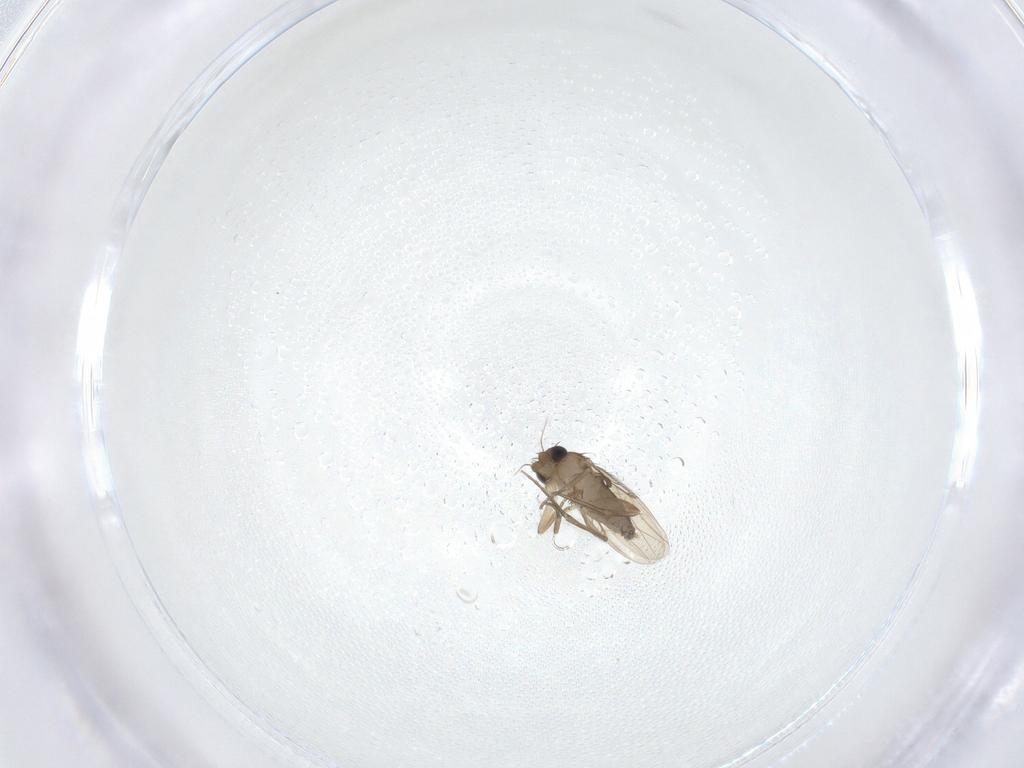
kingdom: Animalia
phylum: Arthropoda
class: Insecta
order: Diptera
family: Phoridae
